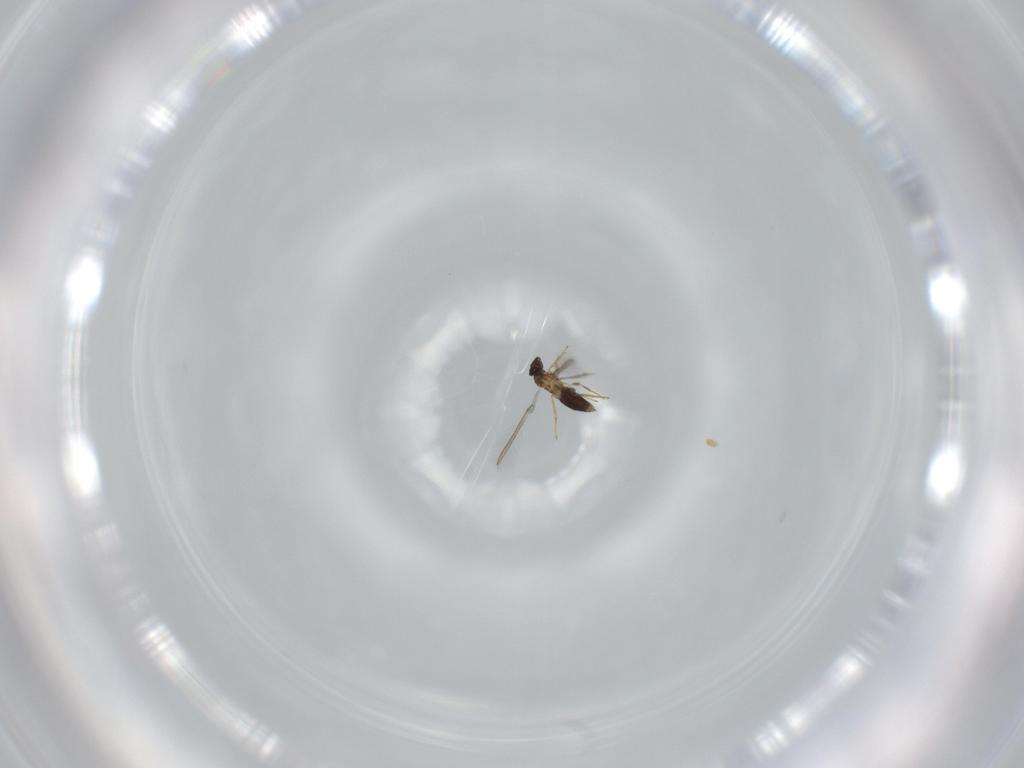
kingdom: Animalia
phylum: Arthropoda
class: Insecta
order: Hymenoptera
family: Mymaridae
